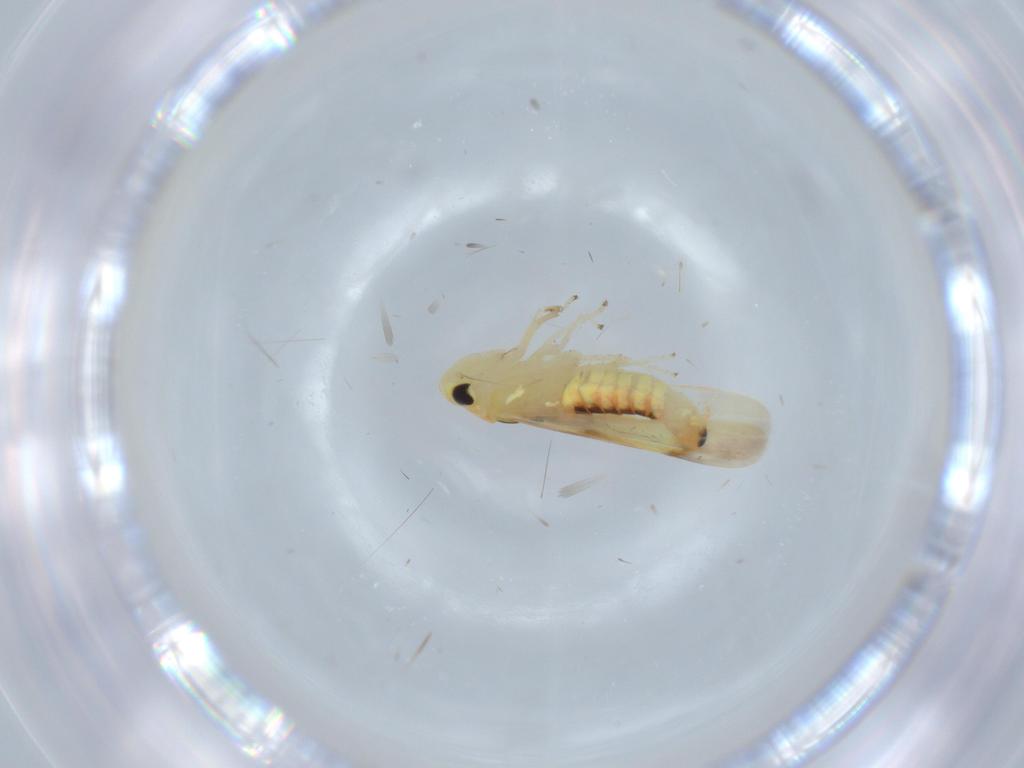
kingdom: Animalia
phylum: Arthropoda
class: Insecta
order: Hemiptera
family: Cicadellidae
